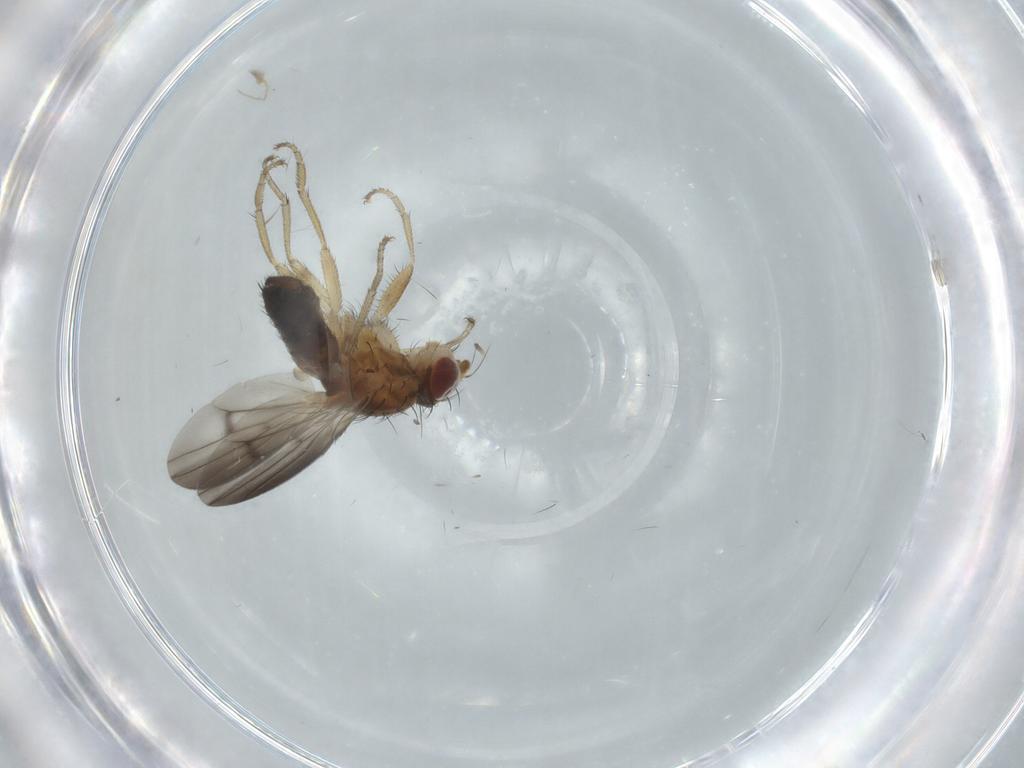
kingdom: Animalia
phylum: Arthropoda
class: Insecta
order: Diptera
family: Heleomyzidae
